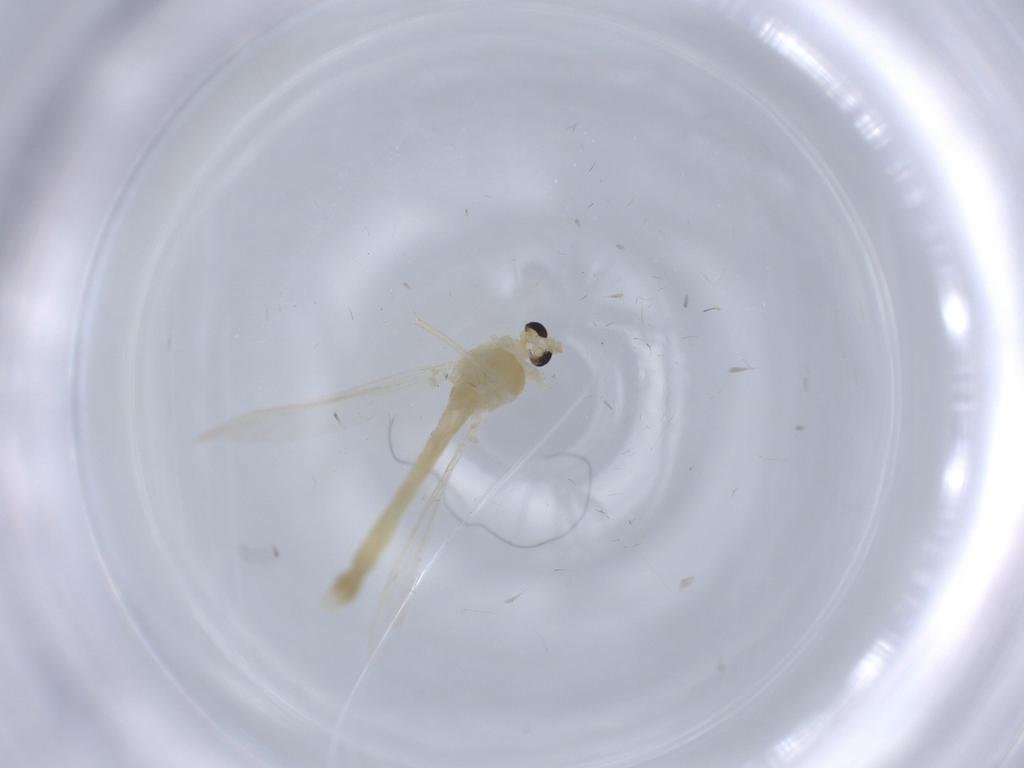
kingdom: Animalia
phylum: Arthropoda
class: Insecta
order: Diptera
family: Chironomidae
